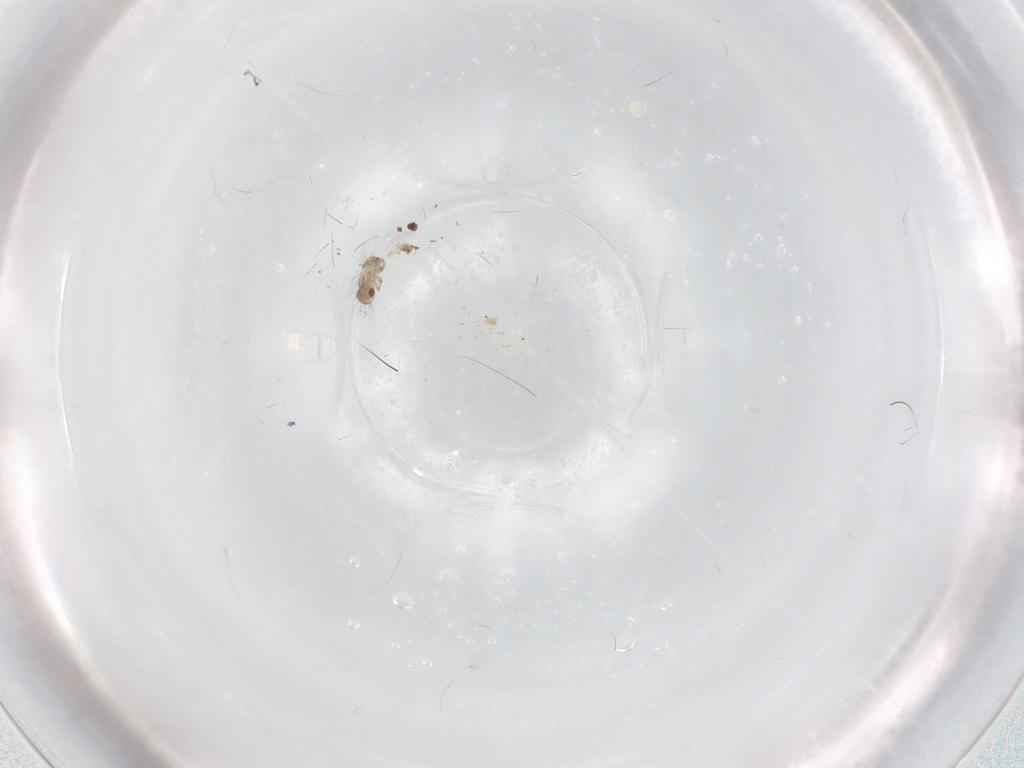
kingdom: Animalia
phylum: Arthropoda
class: Arachnida
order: Sarcoptiformes
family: Humerobatidae
